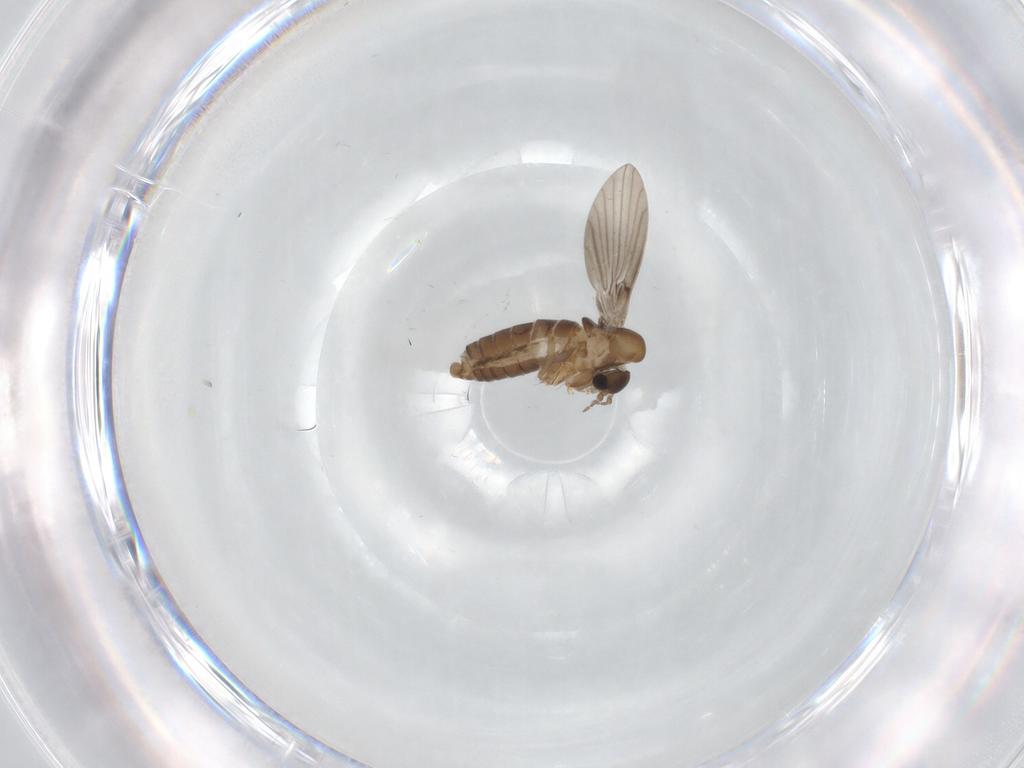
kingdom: Animalia
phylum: Arthropoda
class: Insecta
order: Diptera
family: Psychodidae
